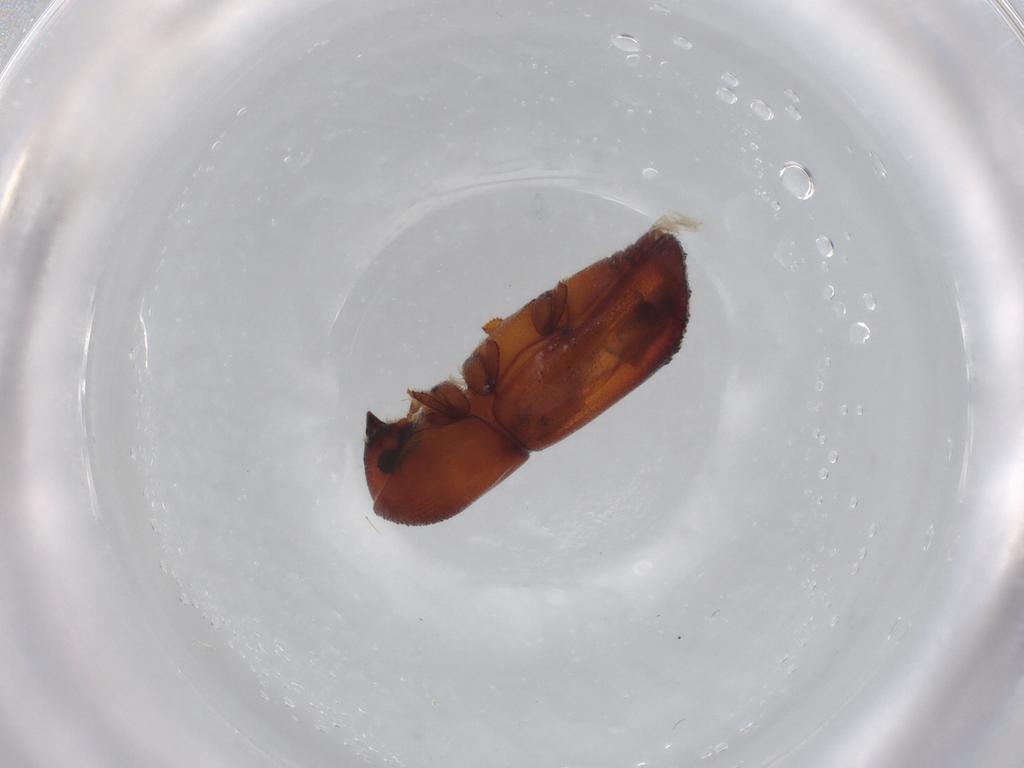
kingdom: Animalia
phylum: Arthropoda
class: Insecta
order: Coleoptera
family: Curculionidae
